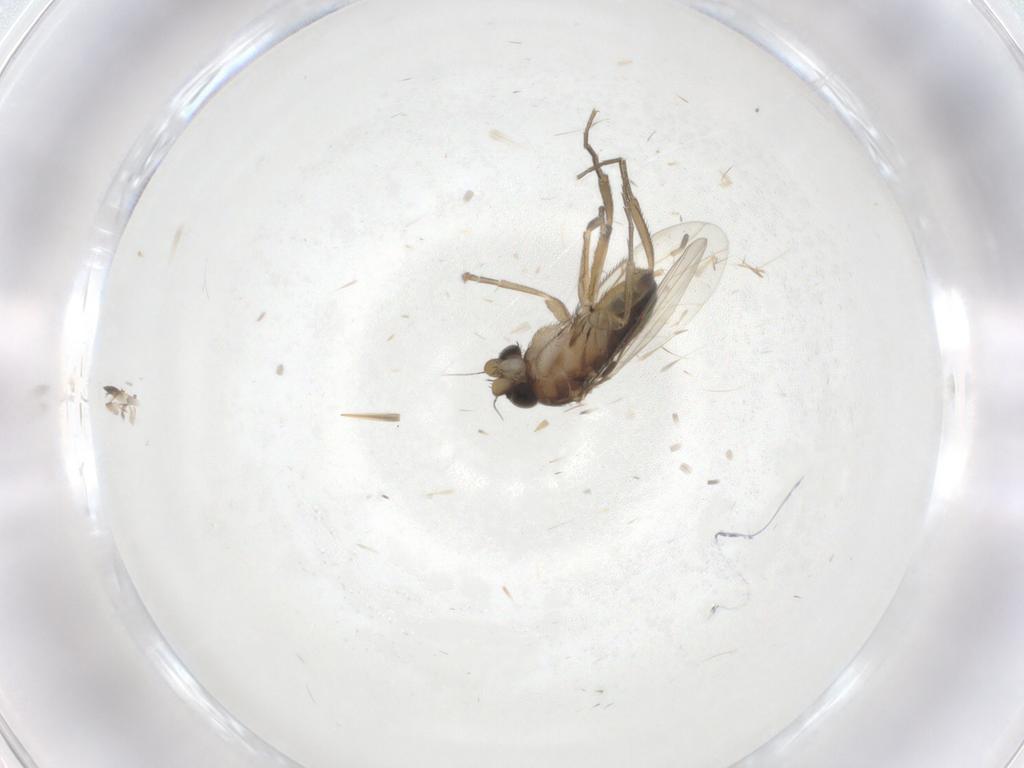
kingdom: Animalia
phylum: Arthropoda
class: Insecta
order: Diptera
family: Phoridae
